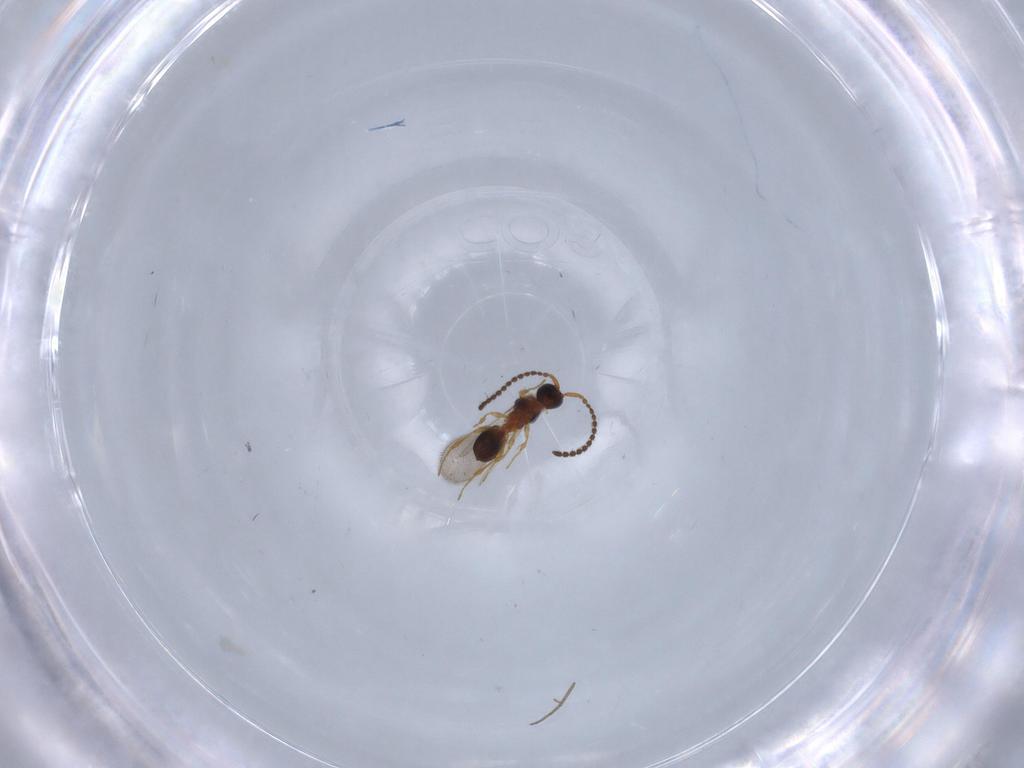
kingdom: Animalia
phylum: Arthropoda
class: Insecta
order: Hymenoptera
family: Diapriidae
